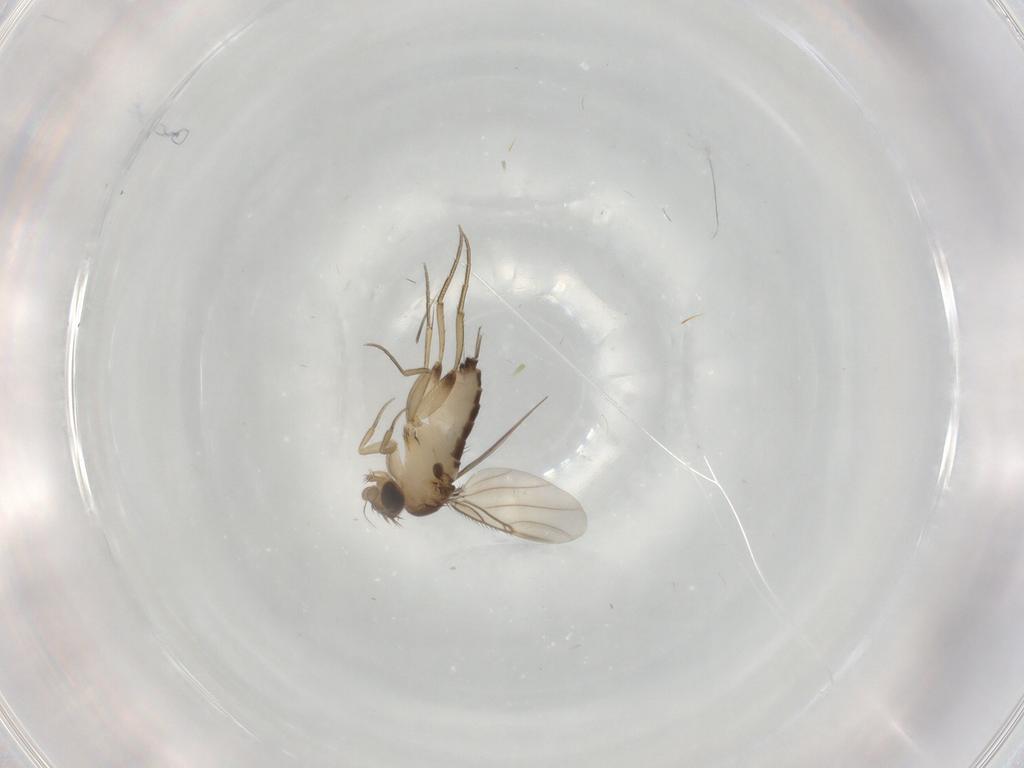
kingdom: Animalia
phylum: Arthropoda
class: Insecta
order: Diptera
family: Phoridae
